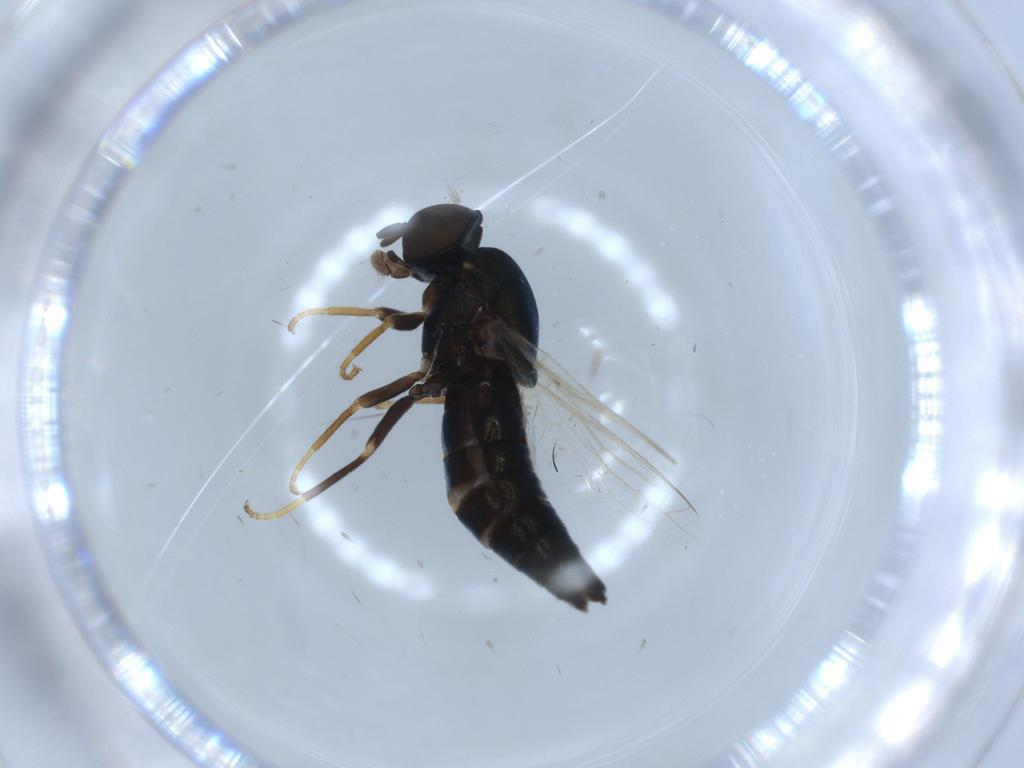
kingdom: Animalia
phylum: Arthropoda
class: Insecta
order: Diptera
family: Scenopinidae
